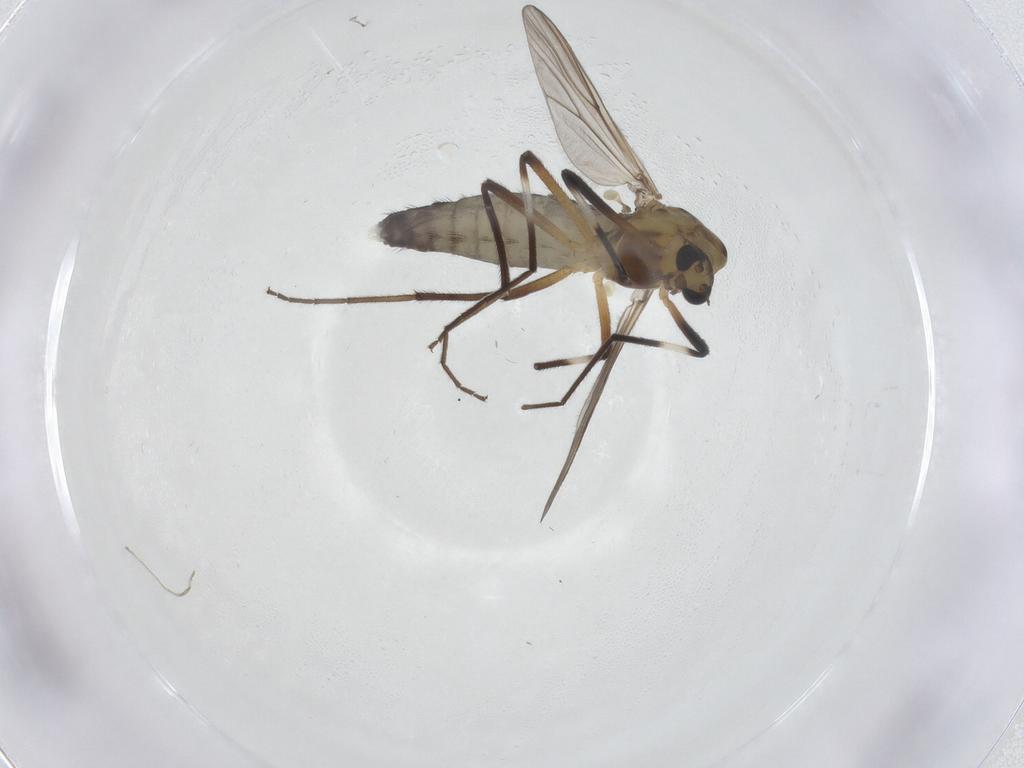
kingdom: Animalia
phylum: Arthropoda
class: Insecta
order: Diptera
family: Chironomidae
